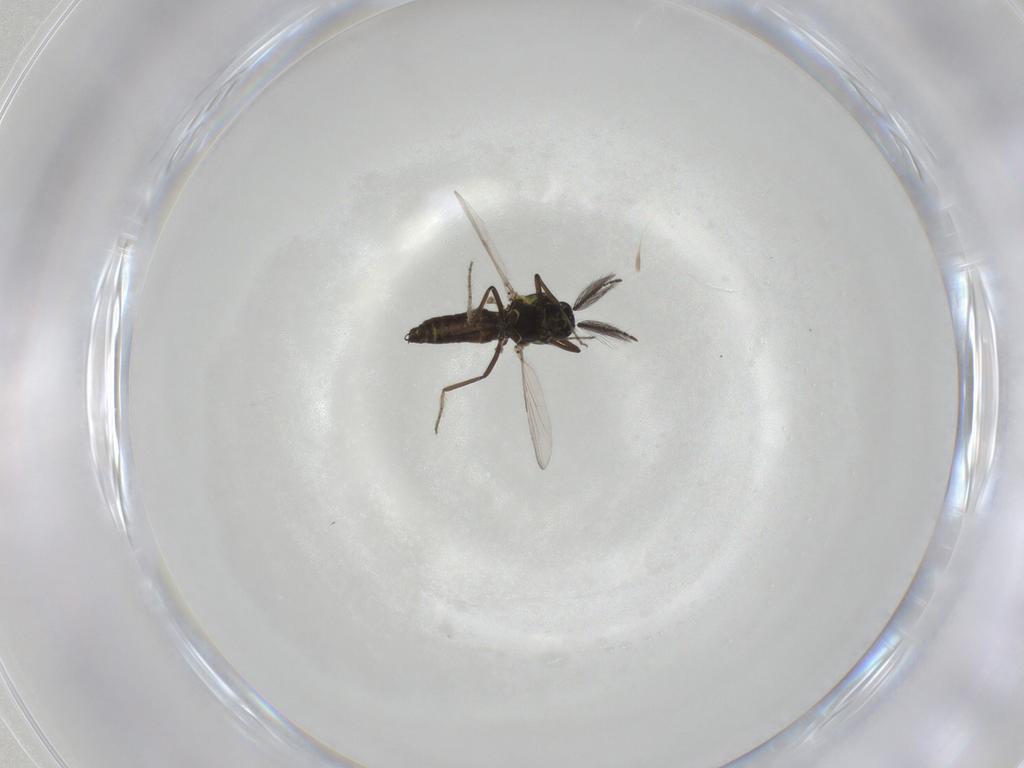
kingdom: Animalia
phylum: Arthropoda
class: Insecta
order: Diptera
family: Ceratopogonidae
